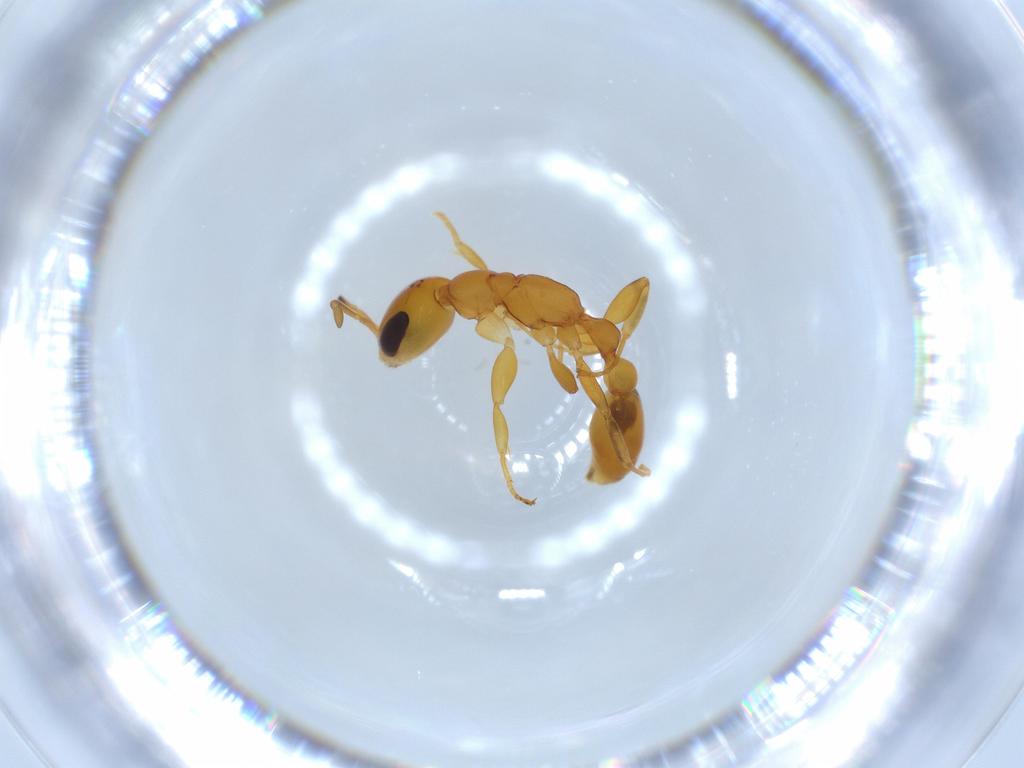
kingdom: Animalia
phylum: Arthropoda
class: Insecta
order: Hymenoptera
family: Formicidae
